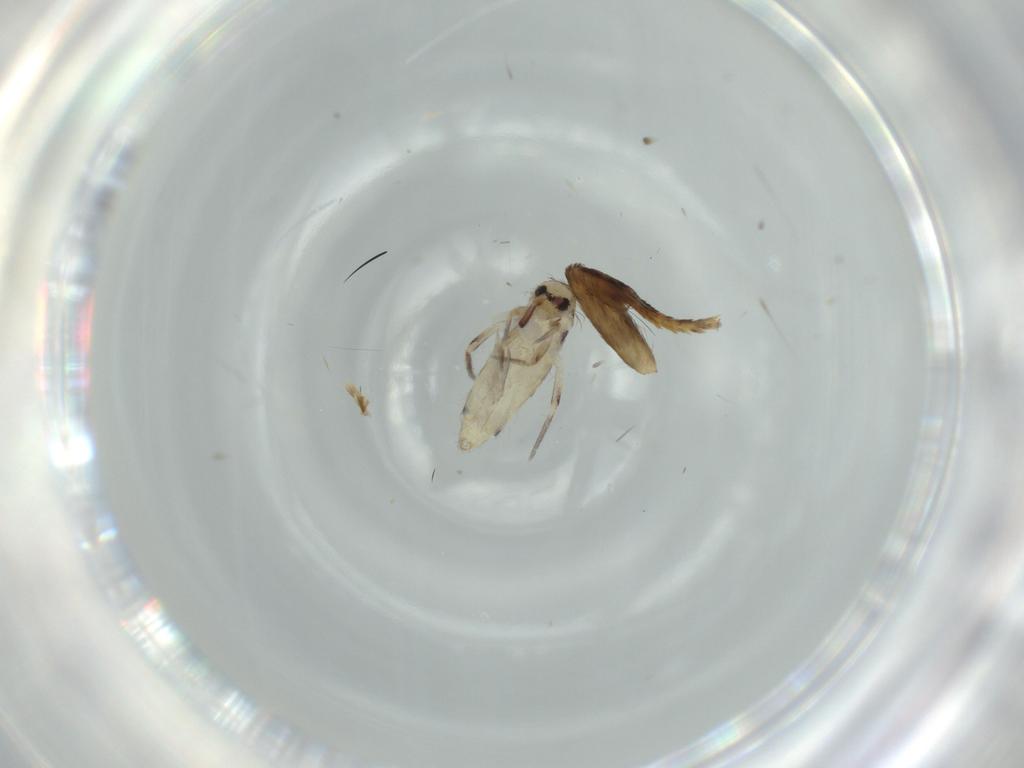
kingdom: Animalia
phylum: Arthropoda
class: Collembola
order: Entomobryomorpha
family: Entomobryidae
